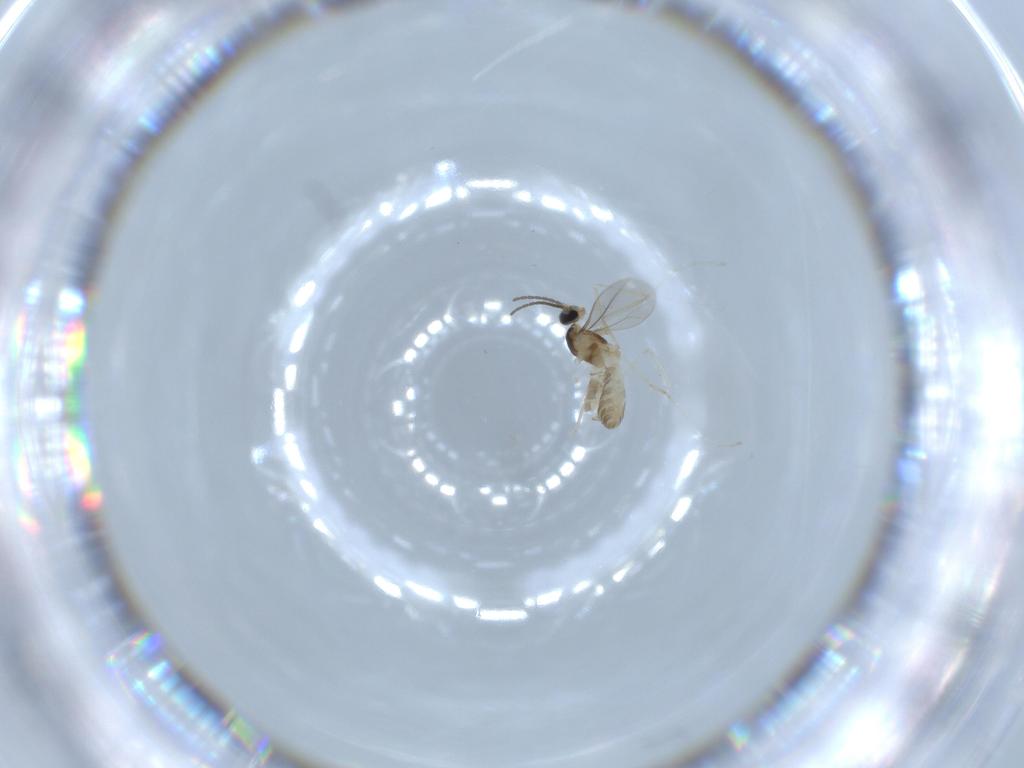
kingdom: Animalia
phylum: Arthropoda
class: Insecta
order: Diptera
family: Cecidomyiidae
